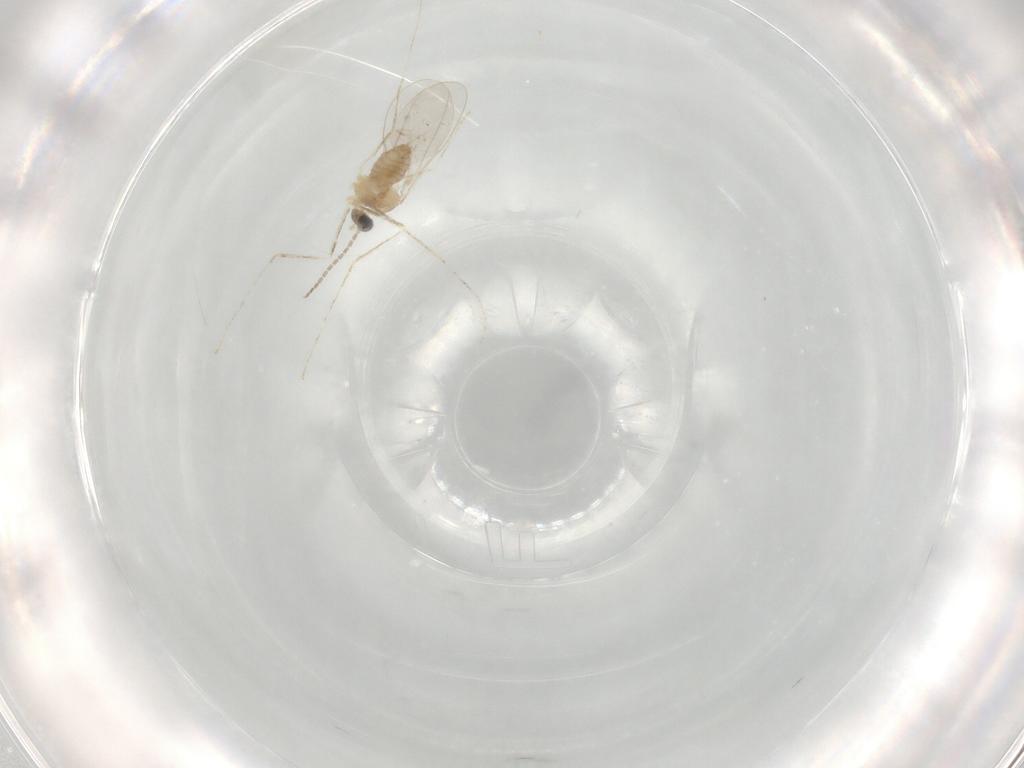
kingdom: Animalia
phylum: Arthropoda
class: Insecta
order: Diptera
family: Cecidomyiidae
